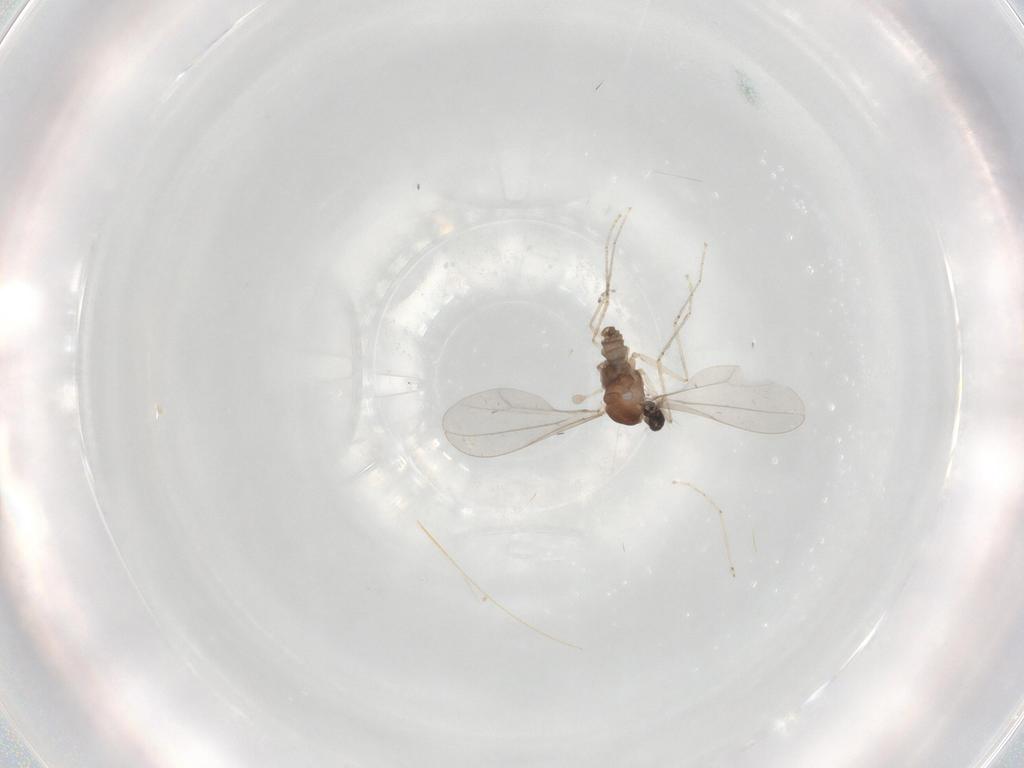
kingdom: Animalia
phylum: Arthropoda
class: Insecta
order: Diptera
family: Cecidomyiidae
